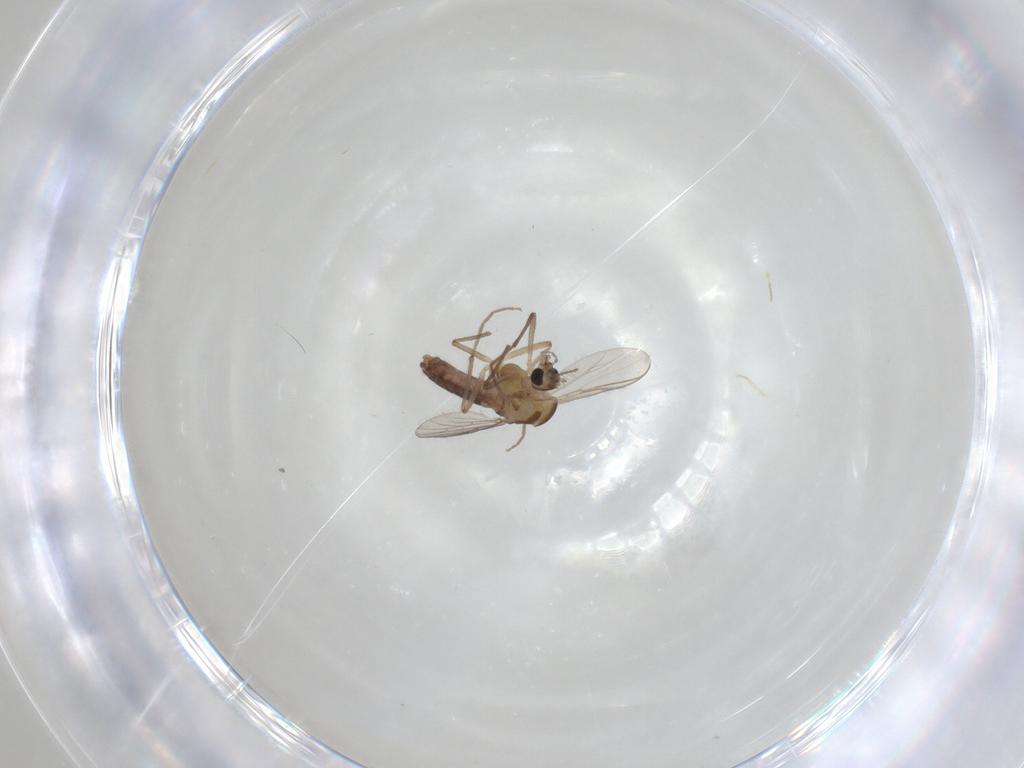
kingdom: Animalia
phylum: Arthropoda
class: Insecta
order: Diptera
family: Chironomidae
